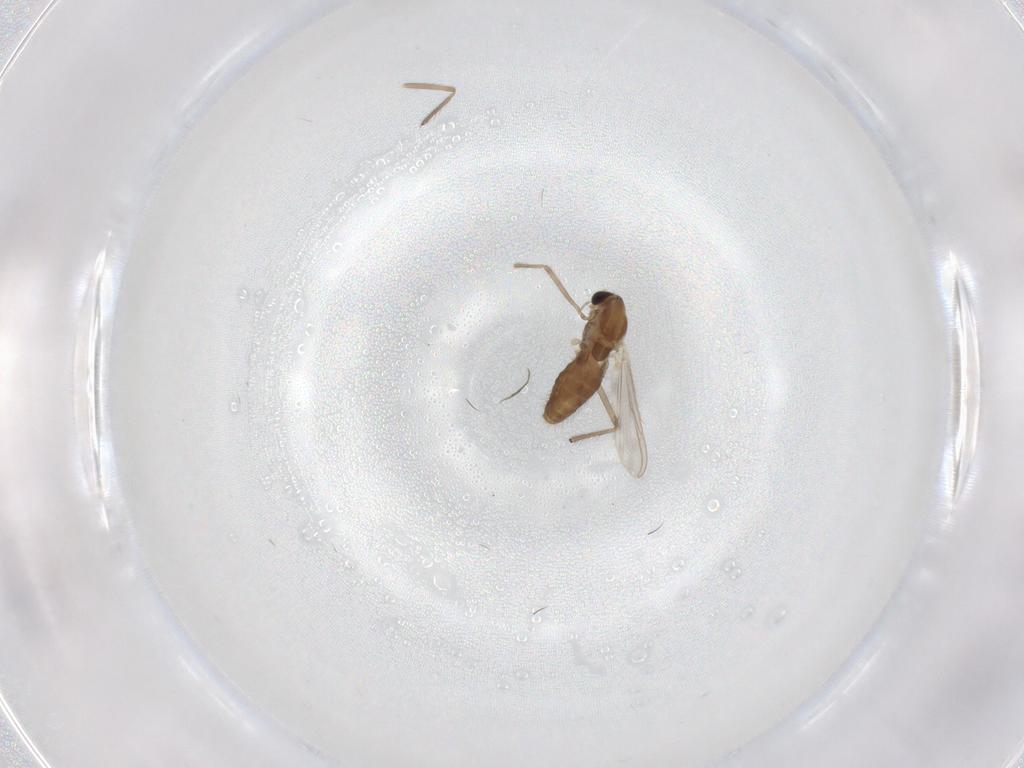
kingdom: Animalia
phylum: Arthropoda
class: Insecta
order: Diptera
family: Chironomidae
